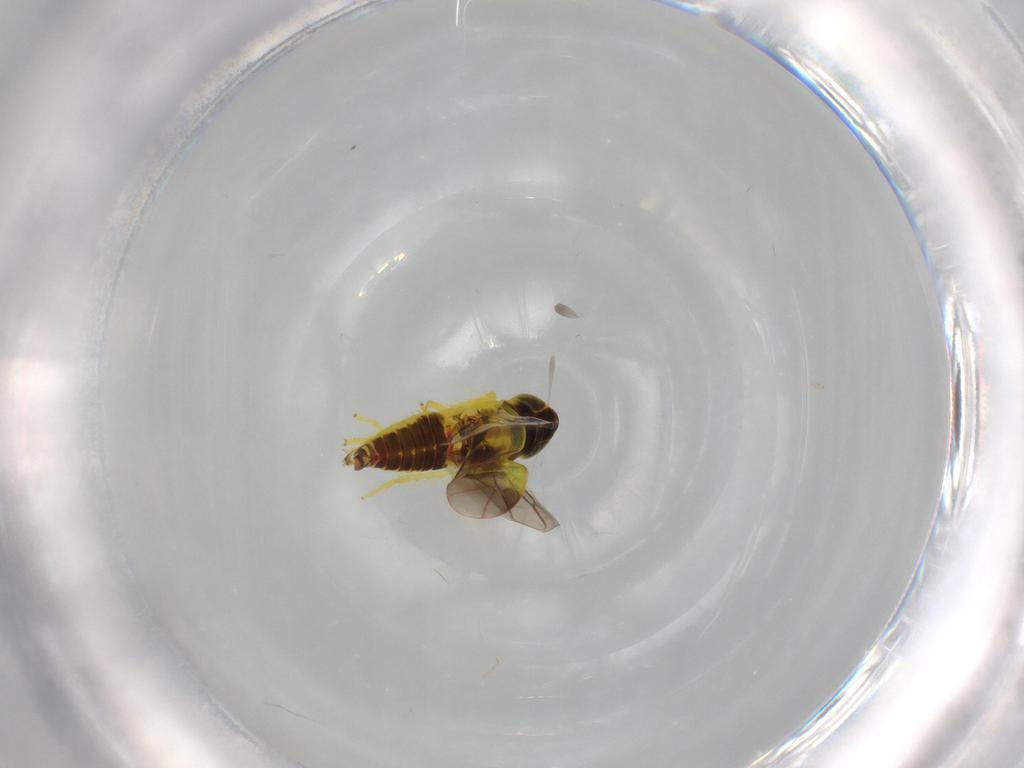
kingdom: Animalia
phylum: Arthropoda
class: Insecta
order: Hemiptera
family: Cicadellidae
